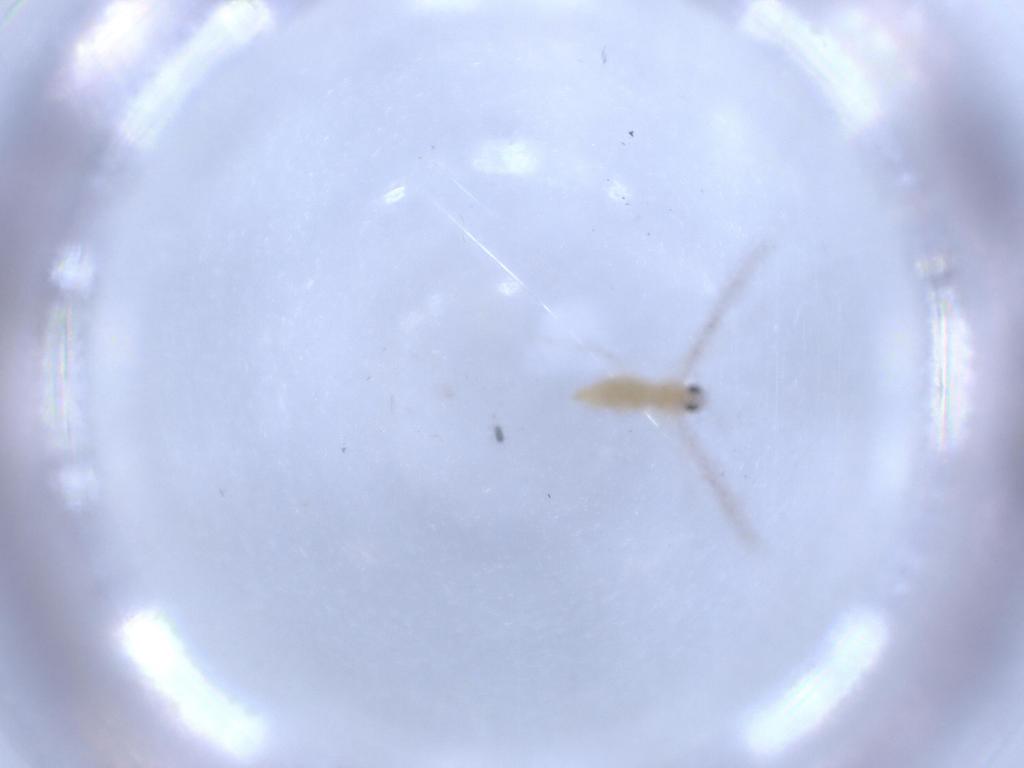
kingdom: Animalia
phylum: Arthropoda
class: Insecta
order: Diptera
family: Cecidomyiidae
